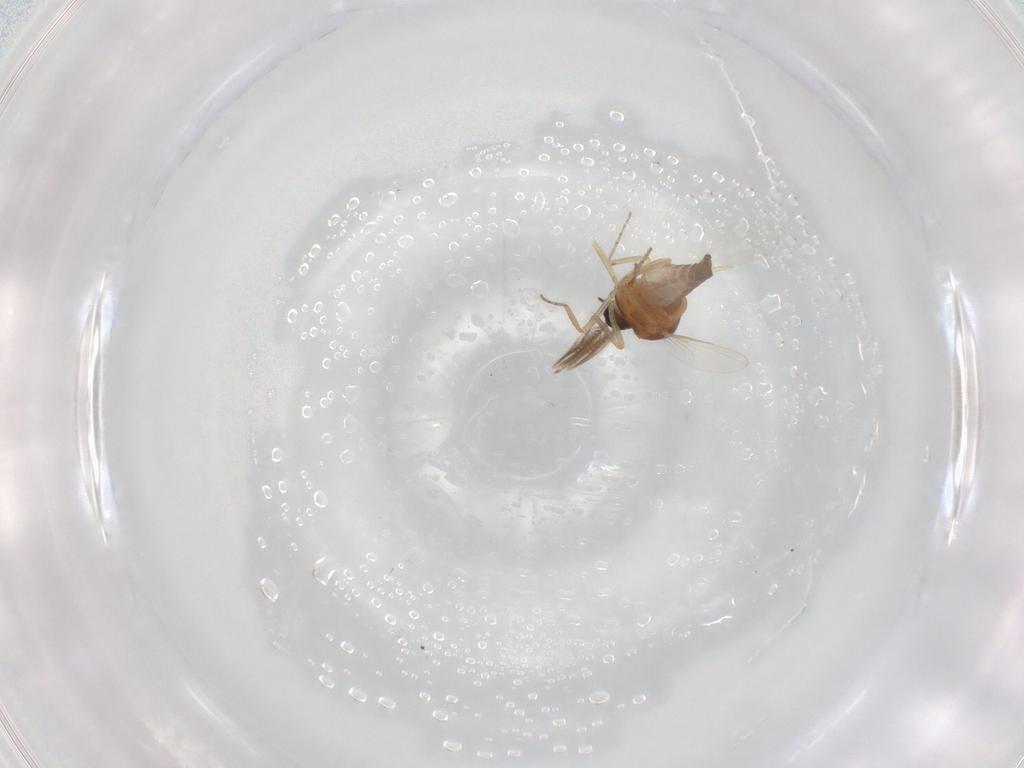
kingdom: Animalia
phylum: Arthropoda
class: Insecta
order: Diptera
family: Ceratopogonidae
